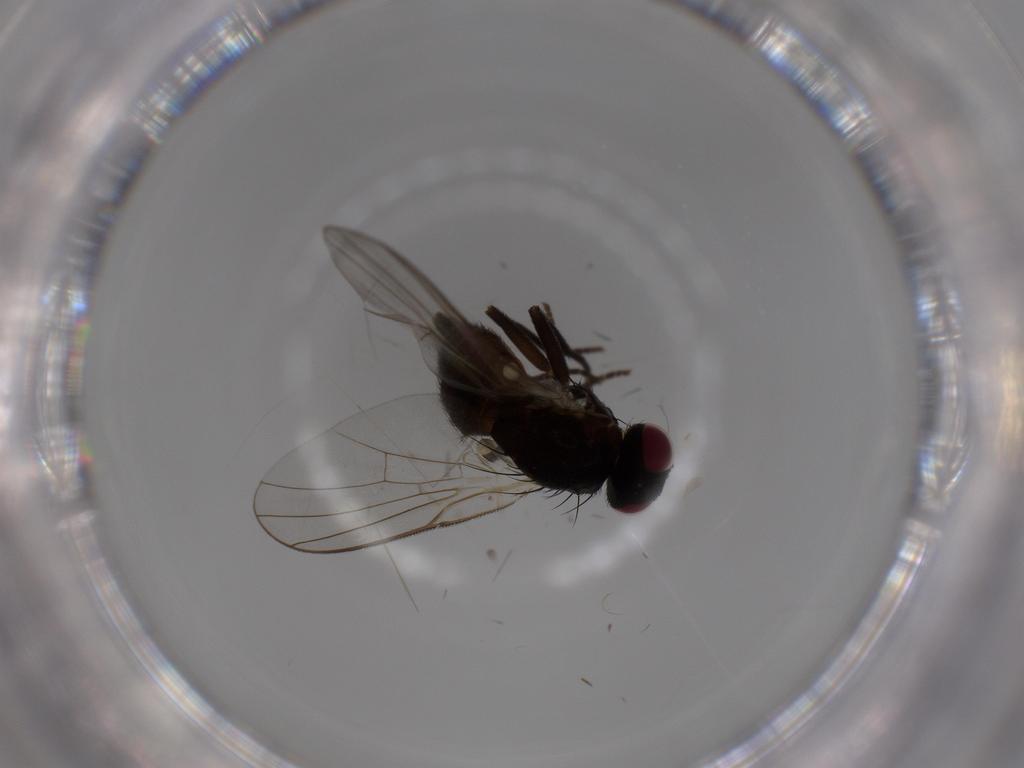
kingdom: Animalia
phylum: Arthropoda
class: Insecta
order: Diptera
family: Agromyzidae
